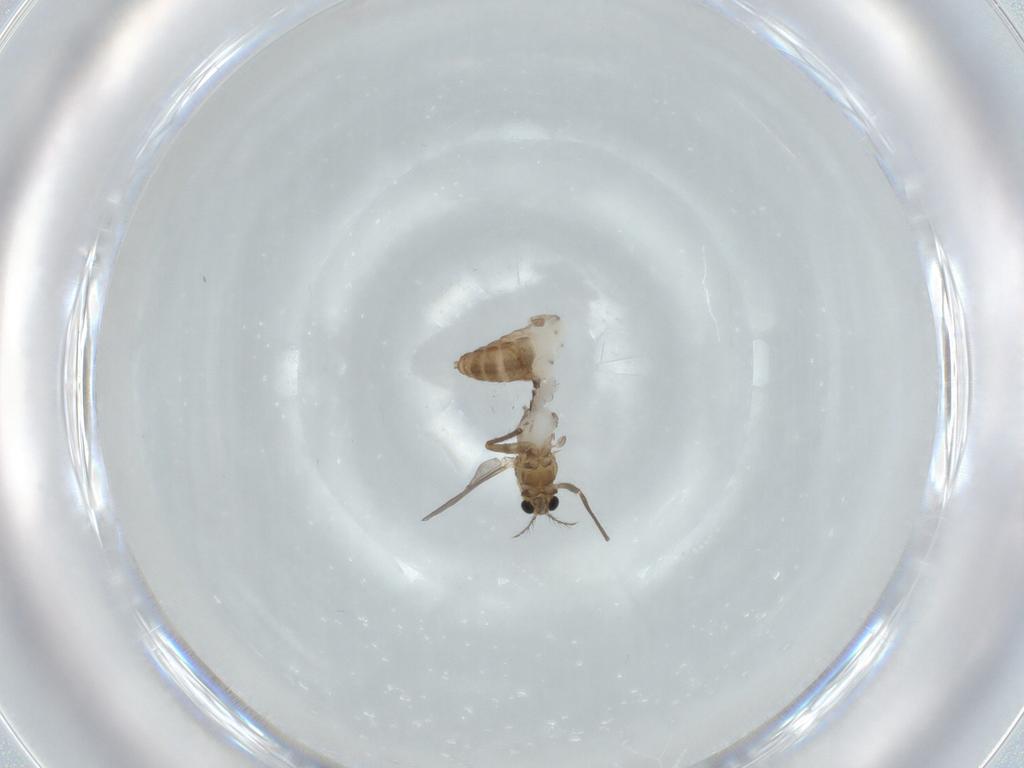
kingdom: Animalia
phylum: Arthropoda
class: Insecta
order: Diptera
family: Chironomidae
